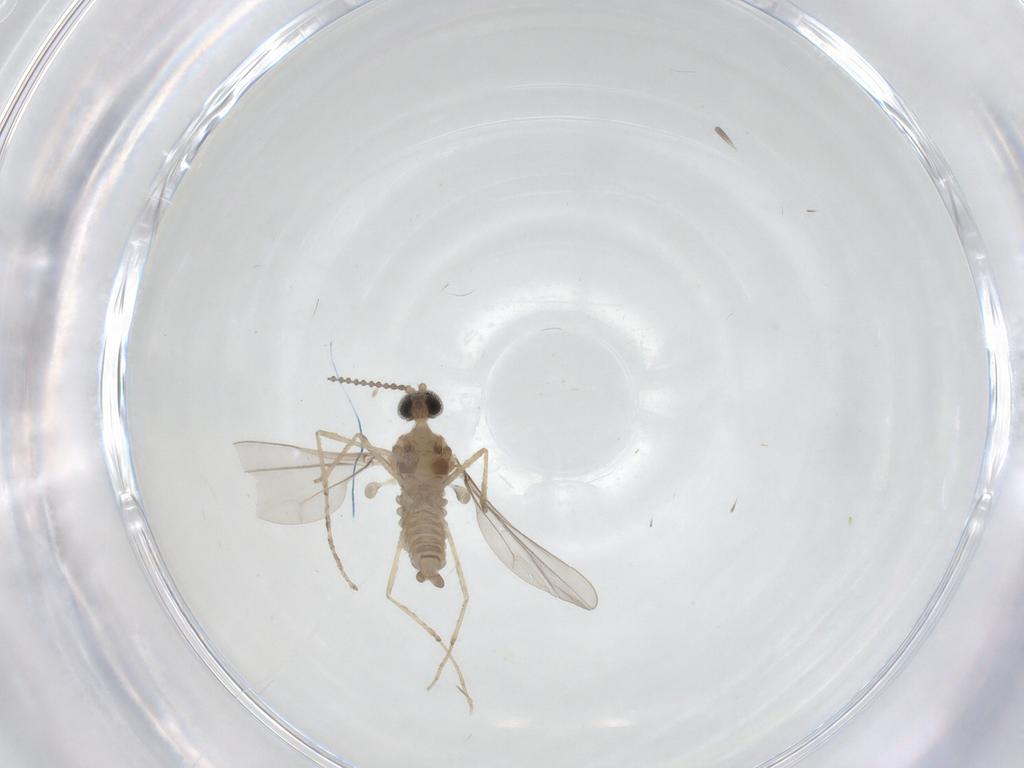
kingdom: Animalia
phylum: Arthropoda
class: Insecta
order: Diptera
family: Cecidomyiidae
